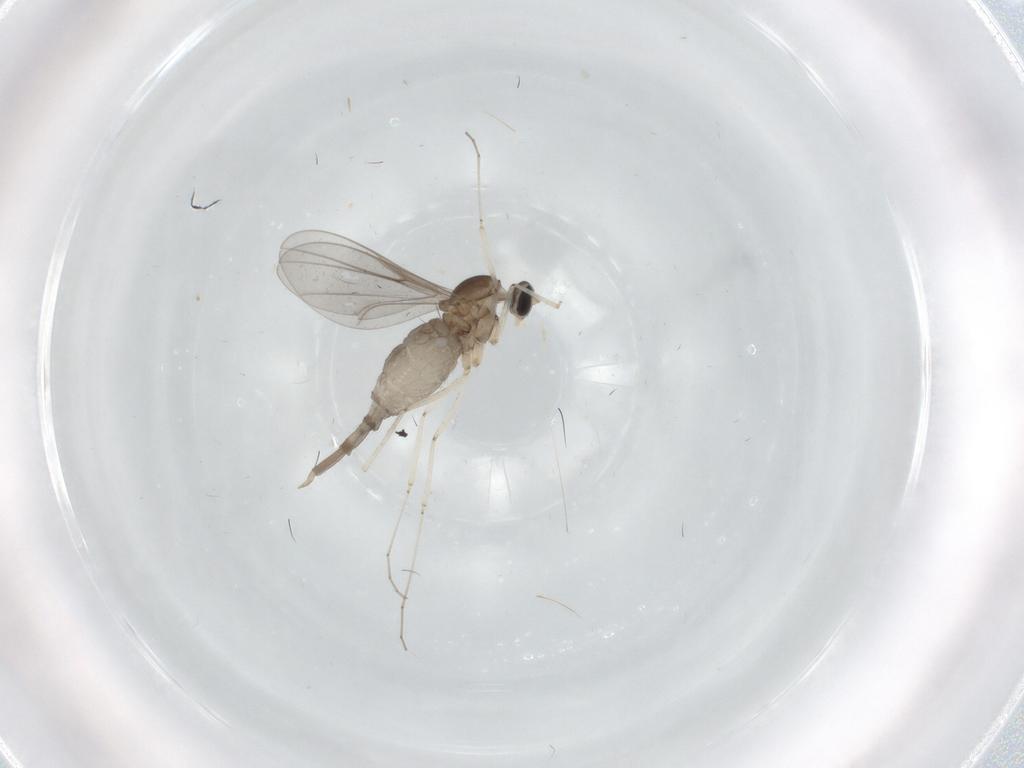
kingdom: Animalia
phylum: Arthropoda
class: Insecta
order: Diptera
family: Cecidomyiidae
